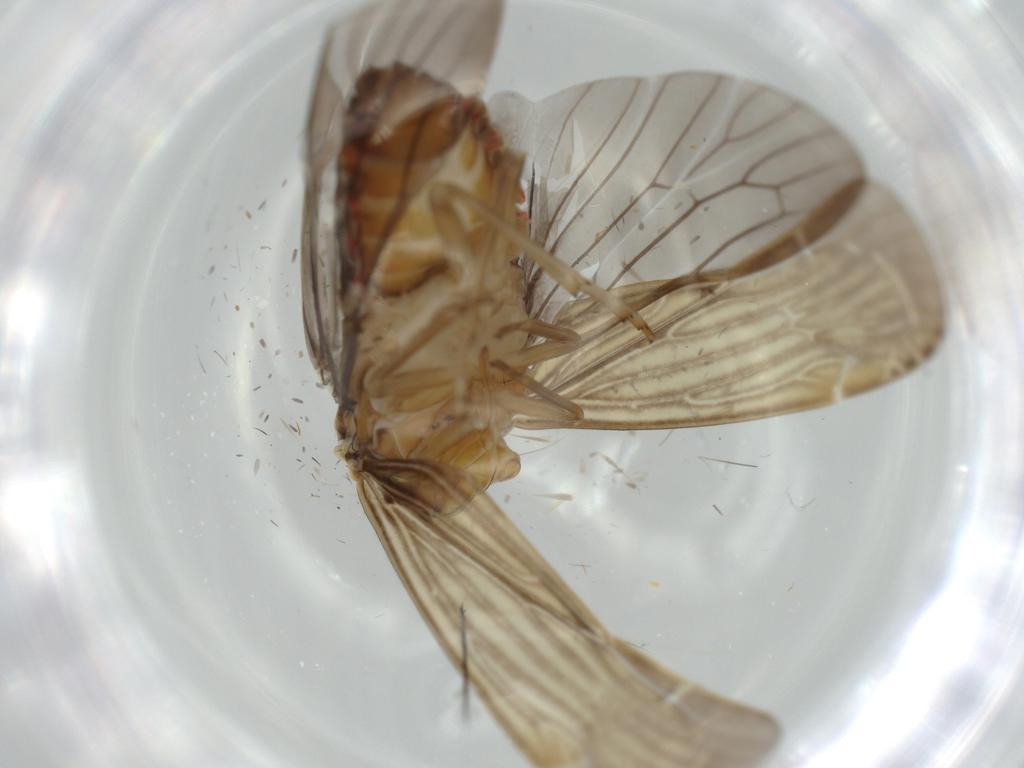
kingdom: Animalia
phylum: Arthropoda
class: Insecta
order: Hemiptera
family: Achilidae
